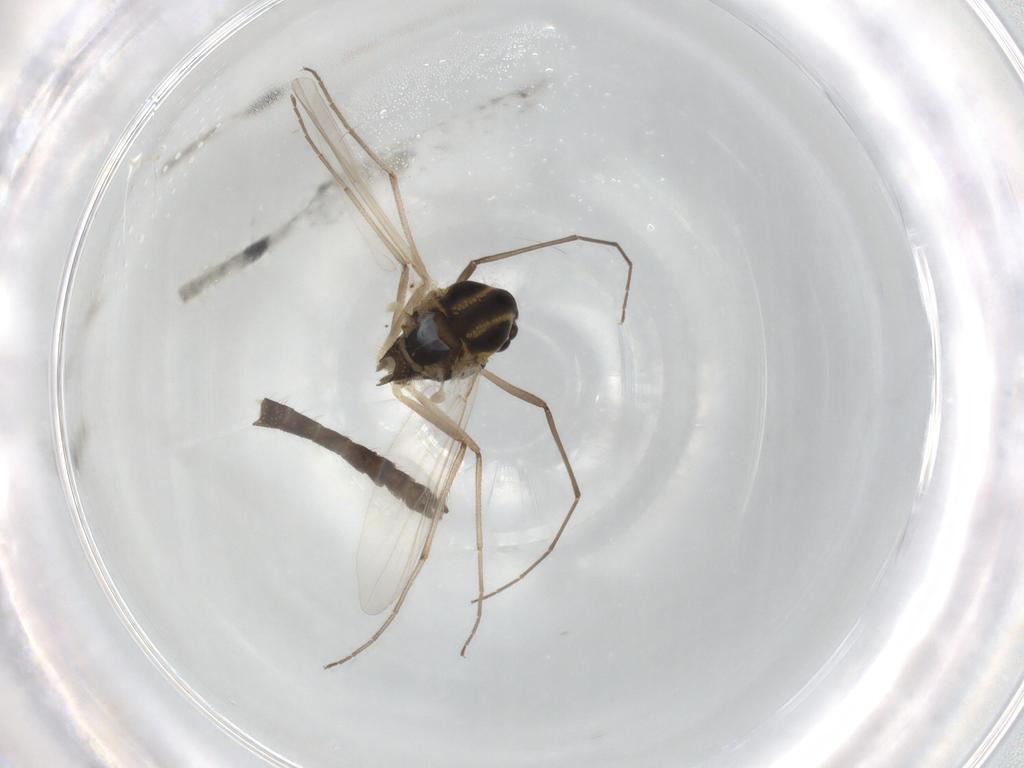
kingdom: Animalia
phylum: Arthropoda
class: Insecta
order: Diptera
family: Chironomidae
